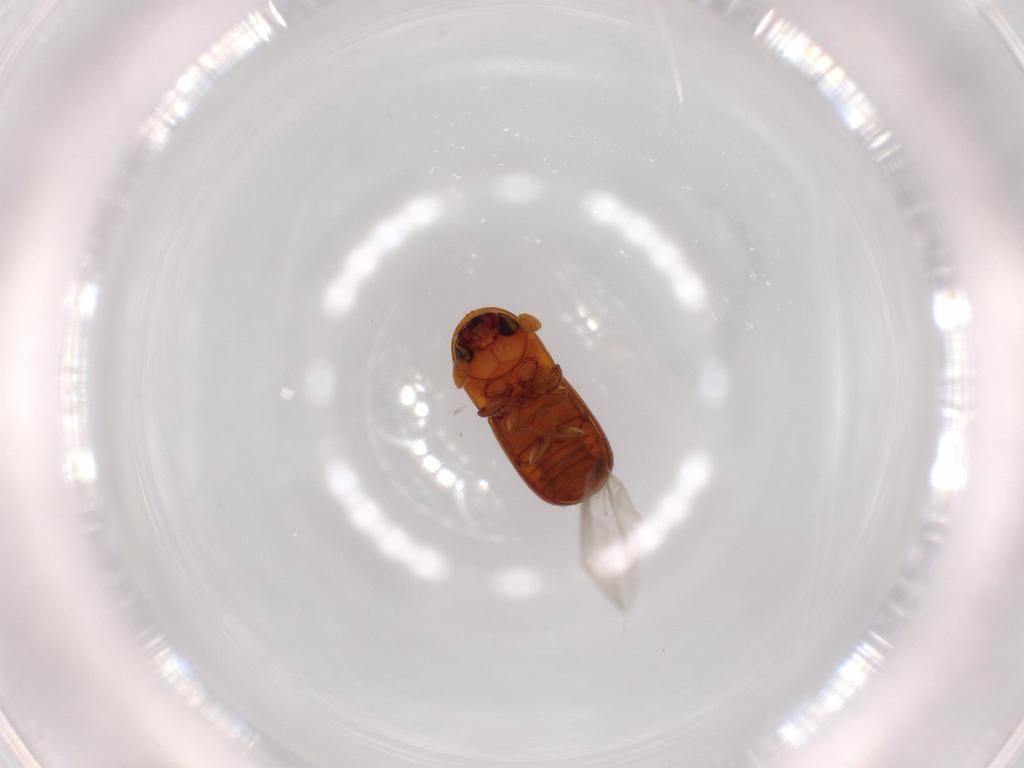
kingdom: Animalia
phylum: Arthropoda
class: Insecta
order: Coleoptera
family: Curculionidae
